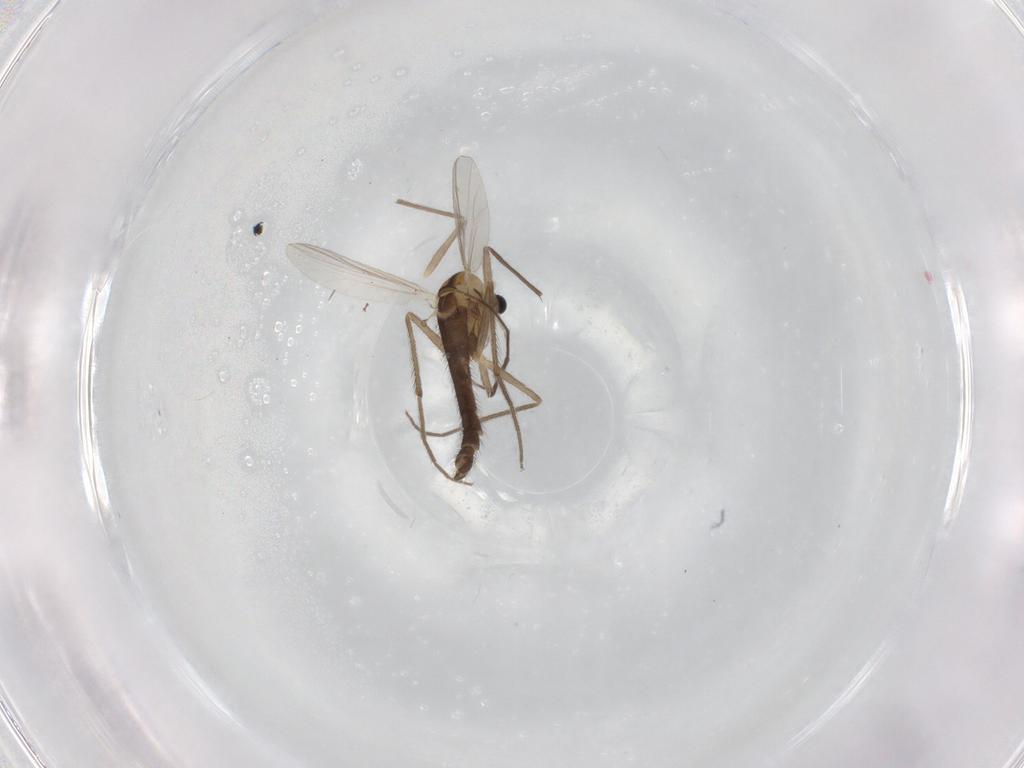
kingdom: Animalia
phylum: Arthropoda
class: Insecta
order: Diptera
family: Chironomidae
